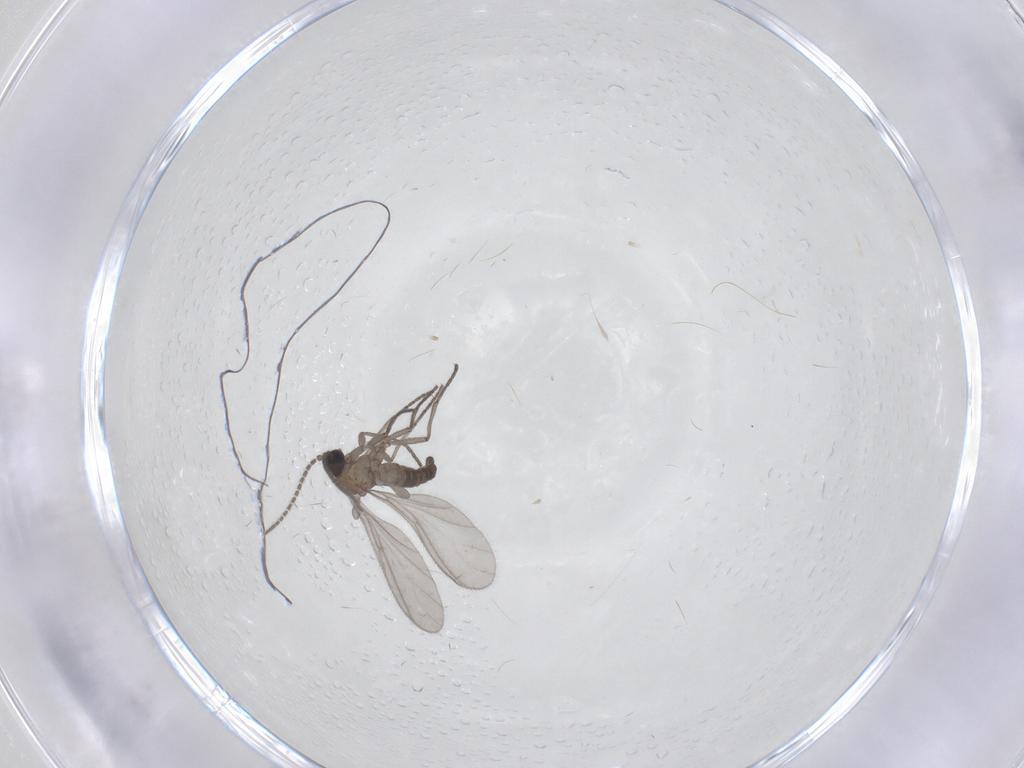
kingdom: Animalia
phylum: Arthropoda
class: Insecta
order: Diptera
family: Sciaridae
